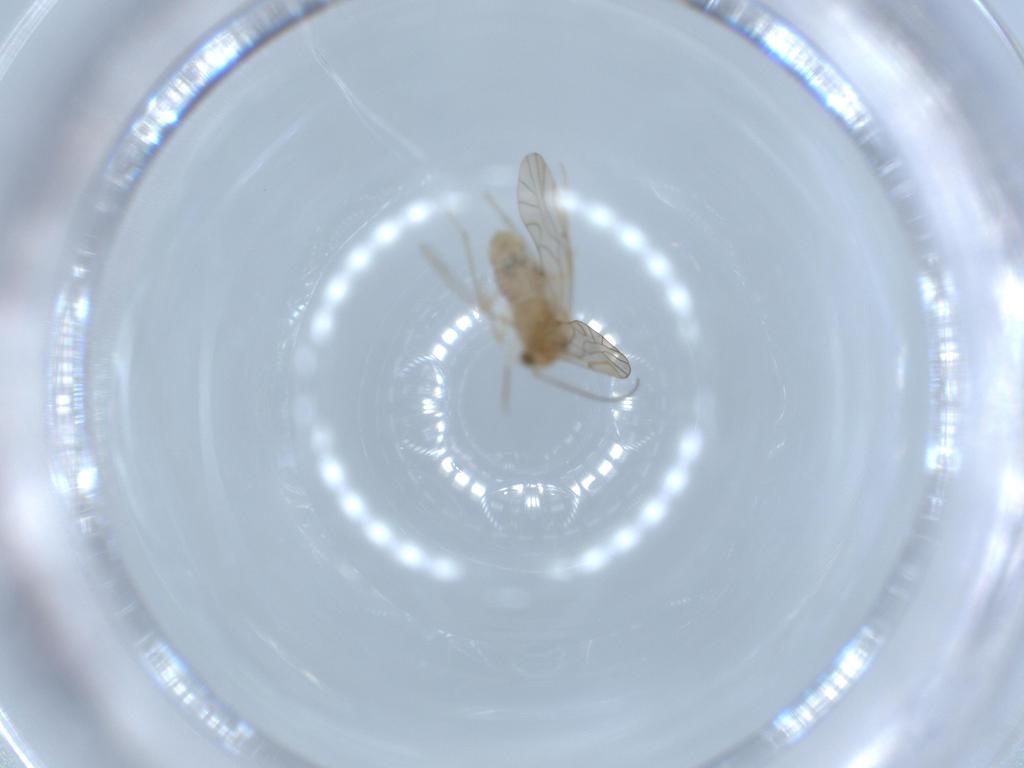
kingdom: Animalia
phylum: Arthropoda
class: Insecta
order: Psocodea
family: Lachesillidae
